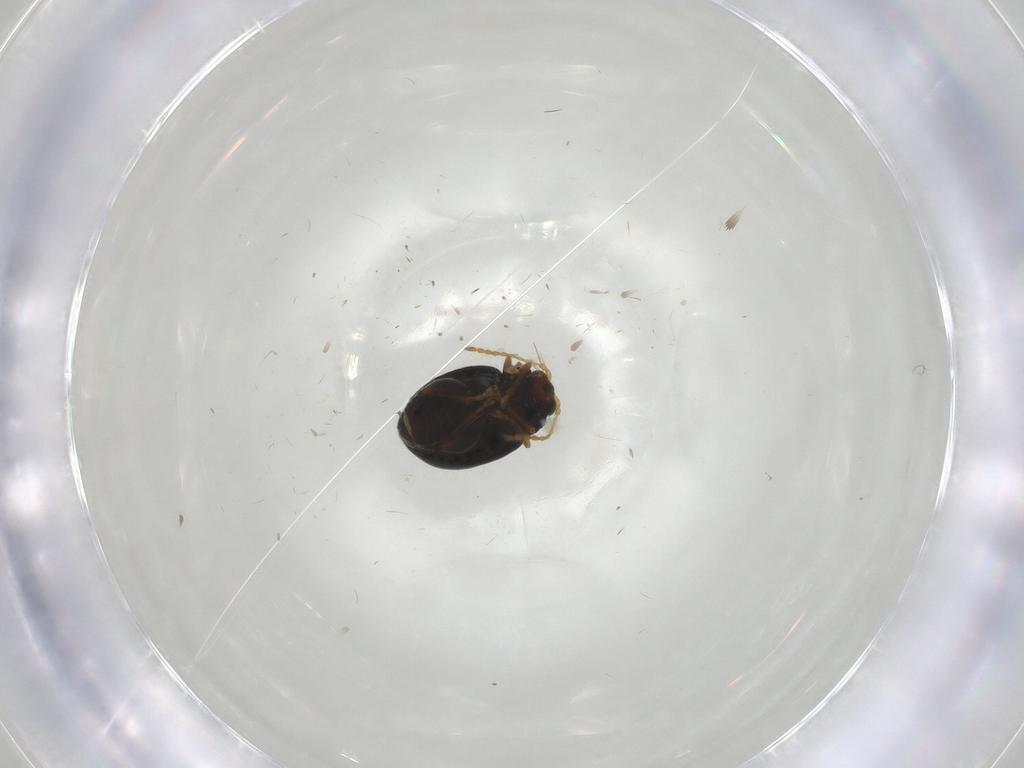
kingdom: Animalia
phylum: Arthropoda
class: Insecta
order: Coleoptera
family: Chrysomelidae
